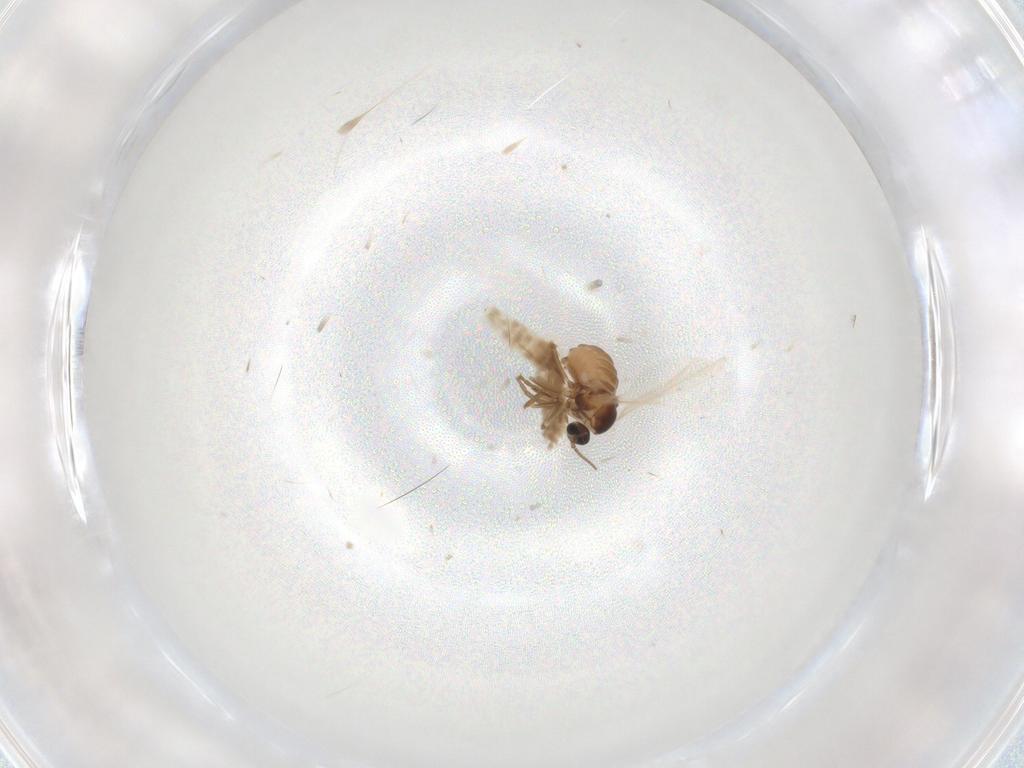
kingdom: Animalia
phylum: Arthropoda
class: Insecta
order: Diptera
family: Cecidomyiidae
